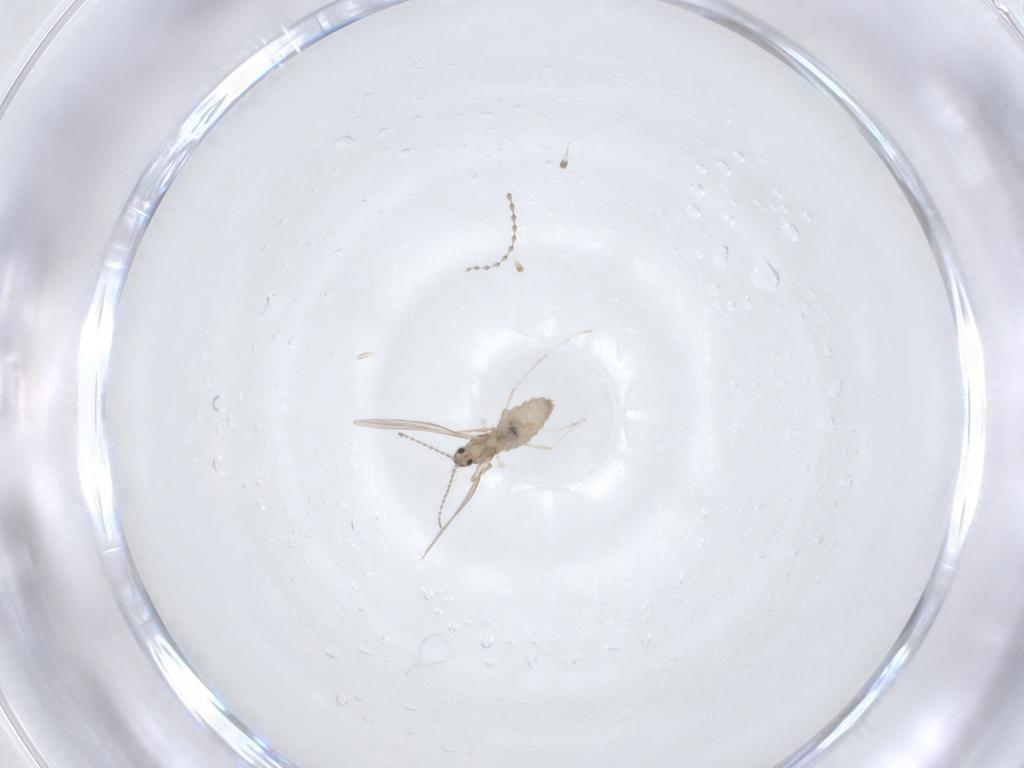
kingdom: Animalia
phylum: Arthropoda
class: Insecta
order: Diptera
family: Cecidomyiidae
